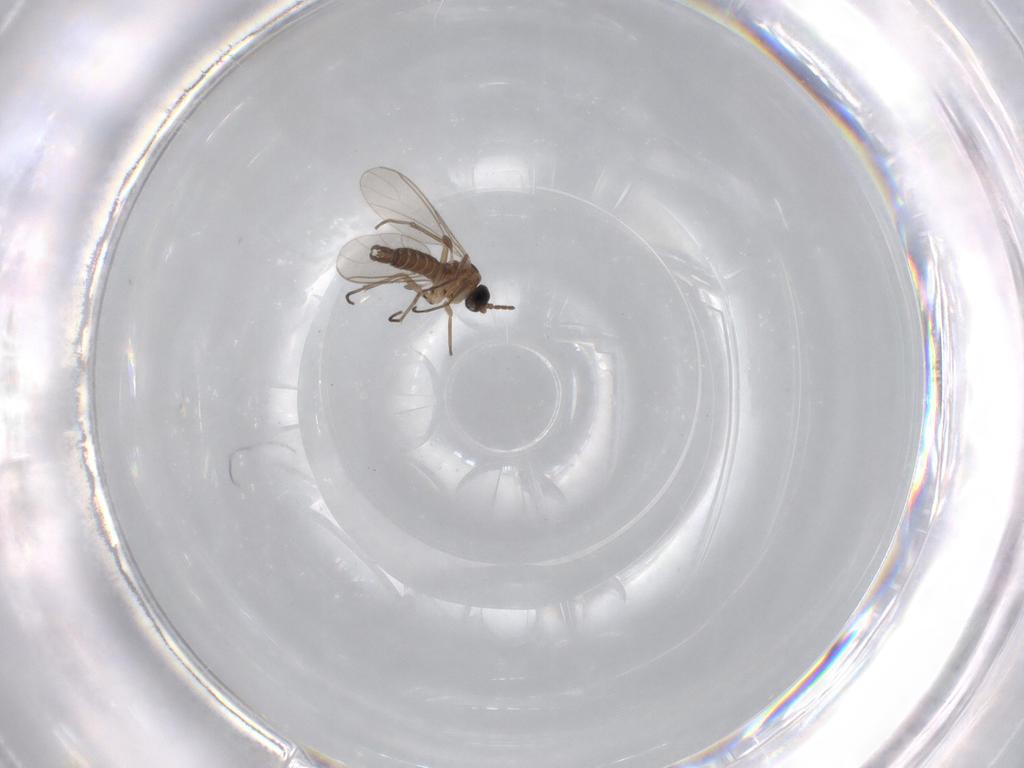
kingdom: Animalia
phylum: Arthropoda
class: Insecta
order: Diptera
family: Sciaridae
